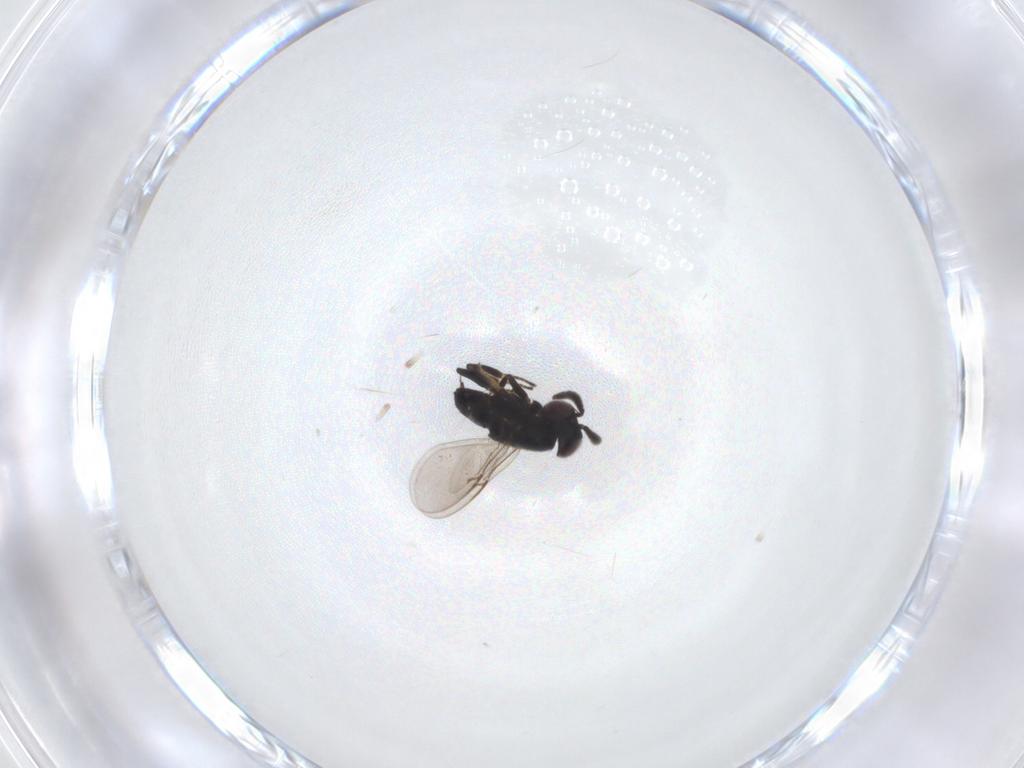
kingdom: Animalia
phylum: Arthropoda
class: Insecta
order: Hymenoptera
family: Encyrtidae
